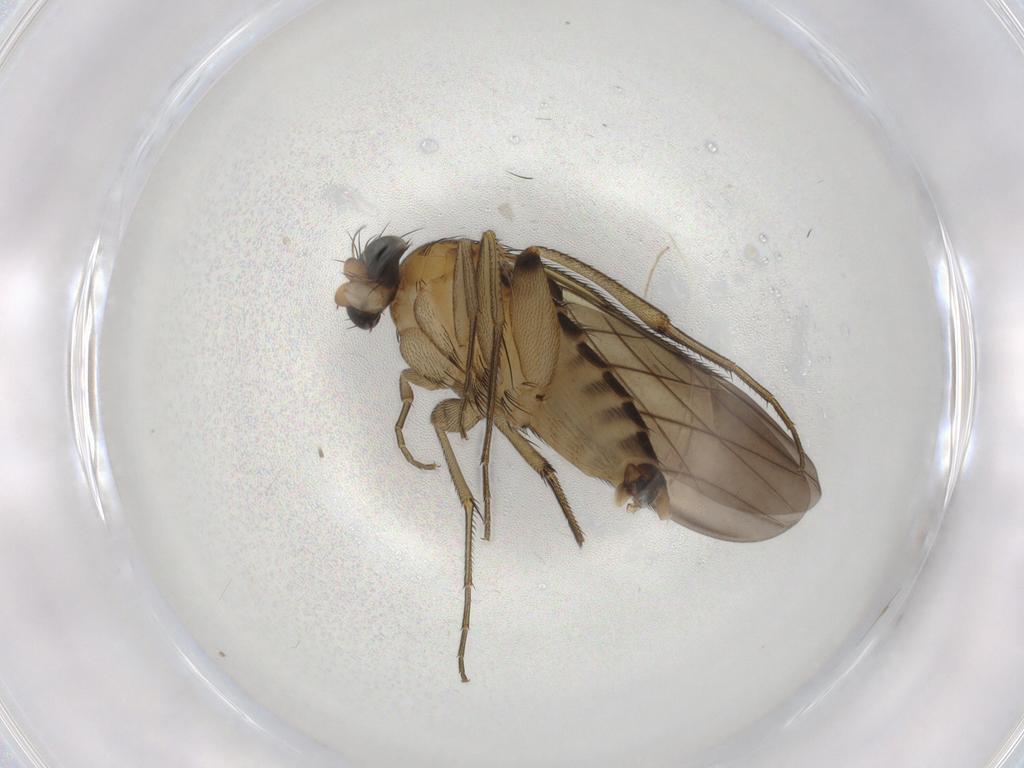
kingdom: Animalia
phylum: Arthropoda
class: Insecta
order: Diptera
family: Phoridae
